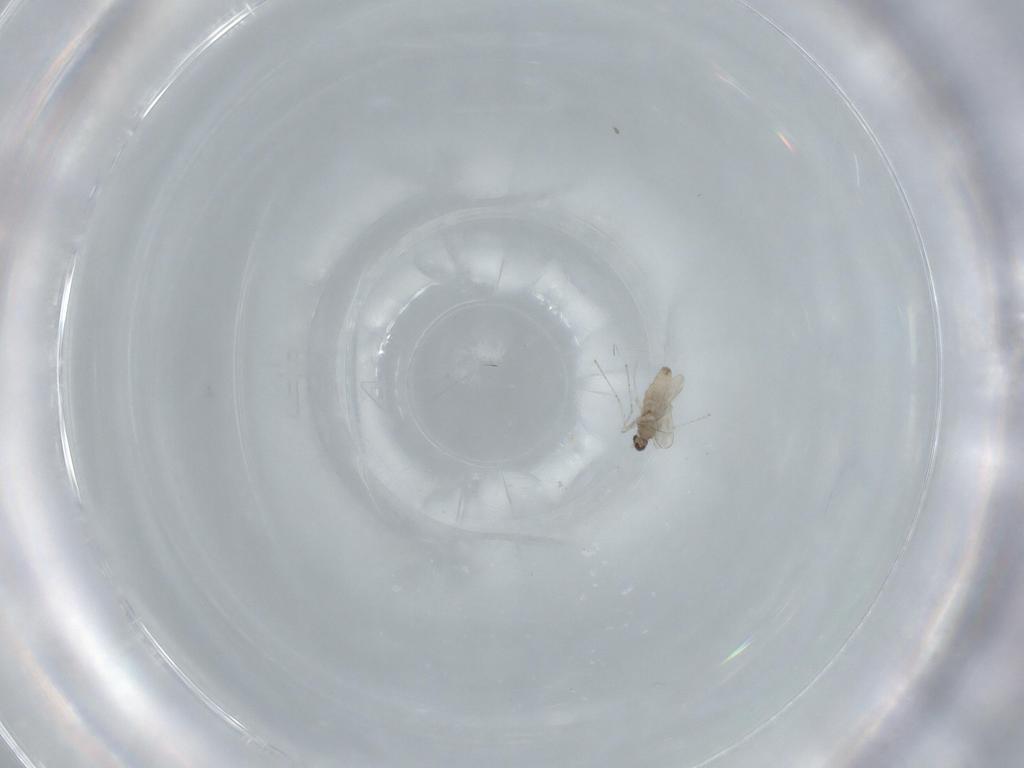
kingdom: Animalia
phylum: Arthropoda
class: Insecta
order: Diptera
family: Cecidomyiidae
